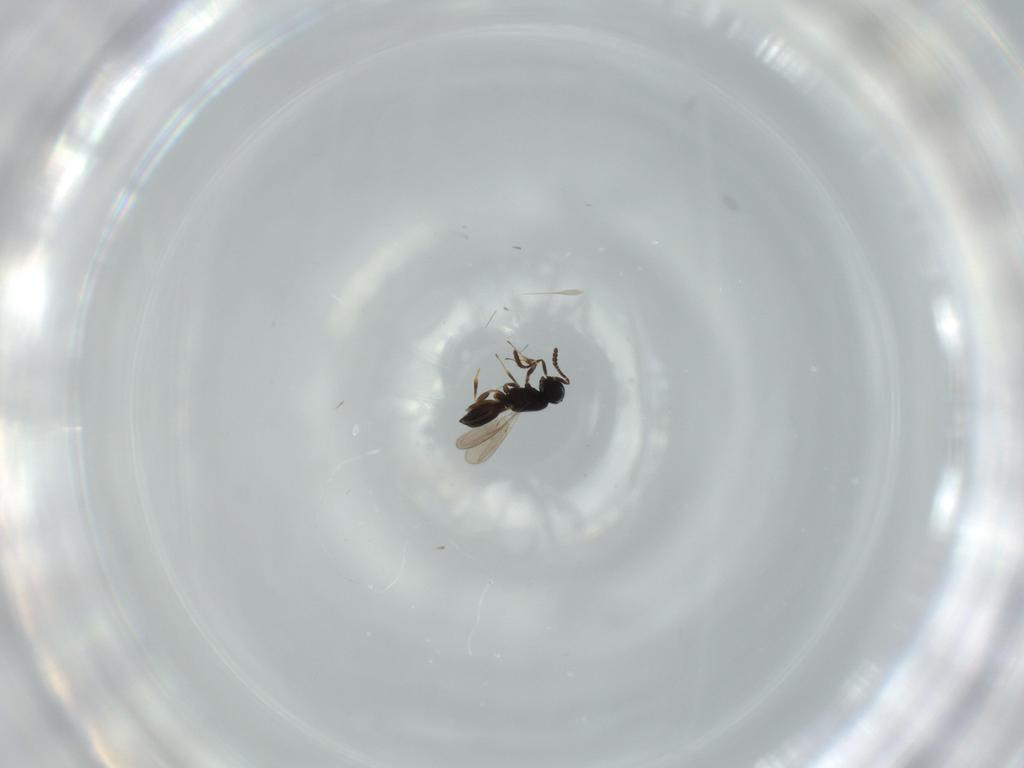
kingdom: Animalia
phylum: Arthropoda
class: Insecta
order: Hymenoptera
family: Scelionidae
